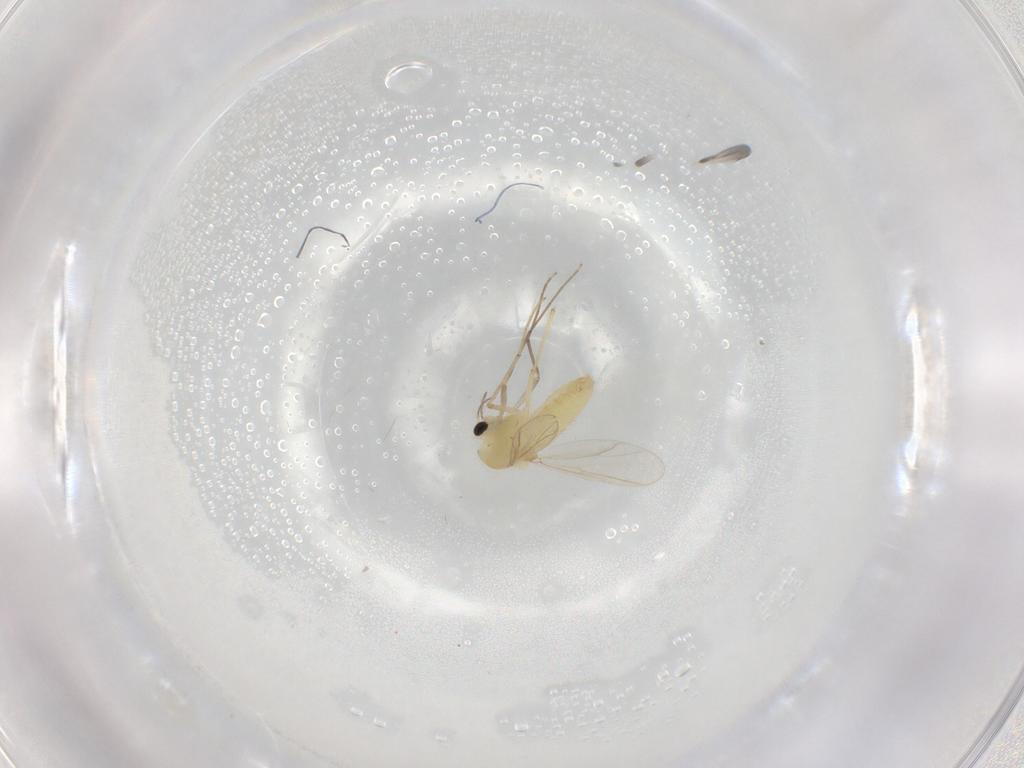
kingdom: Animalia
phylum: Arthropoda
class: Insecta
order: Diptera
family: Chironomidae
